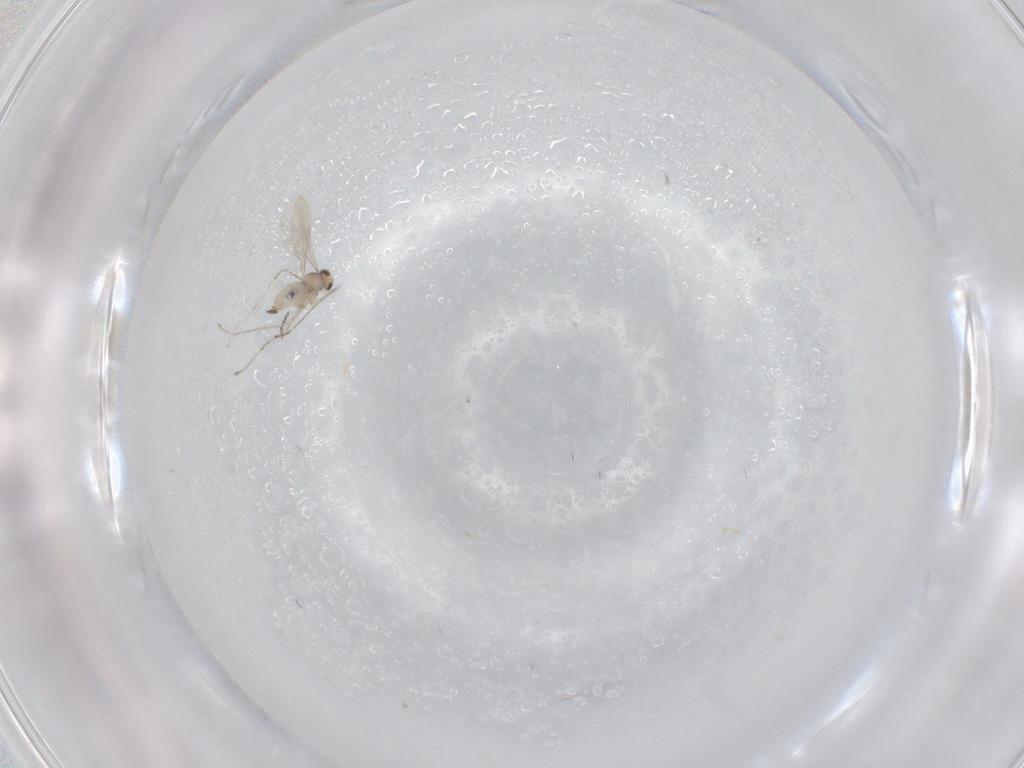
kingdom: Animalia
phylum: Arthropoda
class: Insecta
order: Diptera
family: Cecidomyiidae
